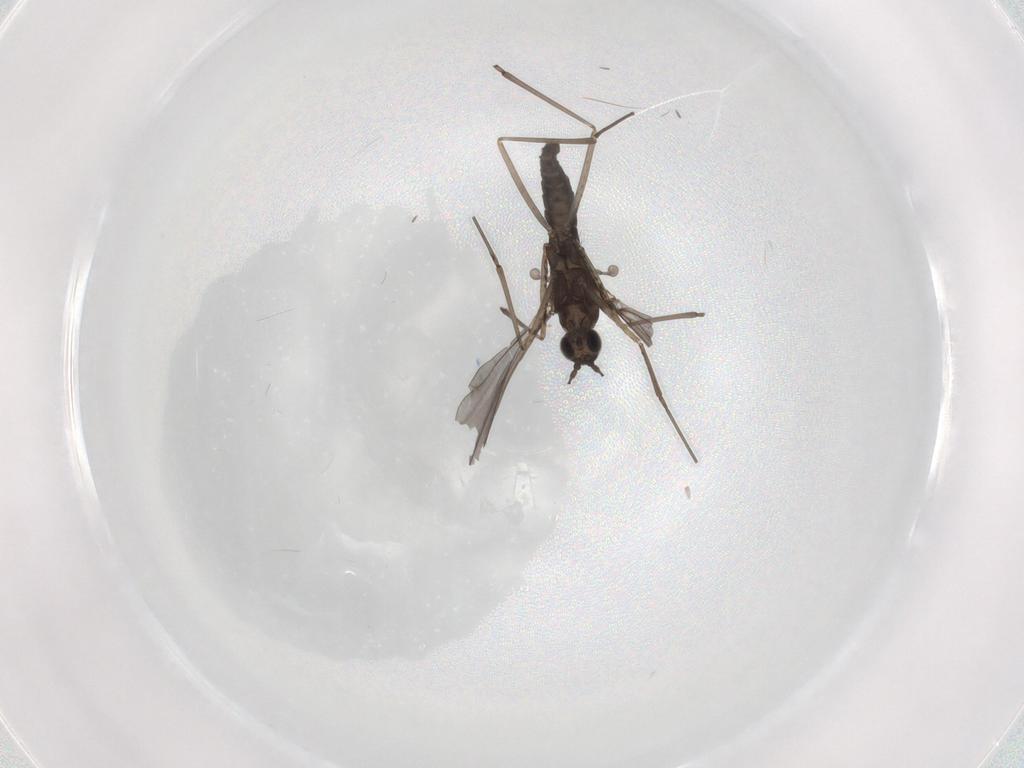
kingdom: Animalia
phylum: Arthropoda
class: Insecta
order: Diptera
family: Cecidomyiidae
